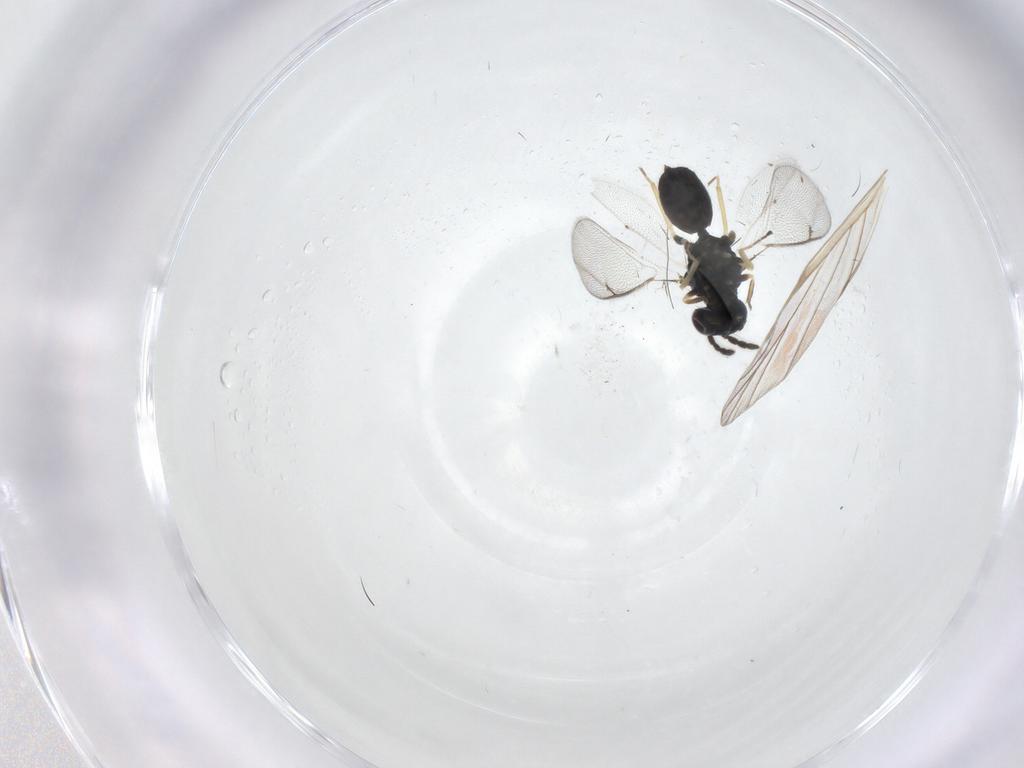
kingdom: Animalia
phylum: Arthropoda
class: Insecta
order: Hymenoptera
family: Eulophidae
